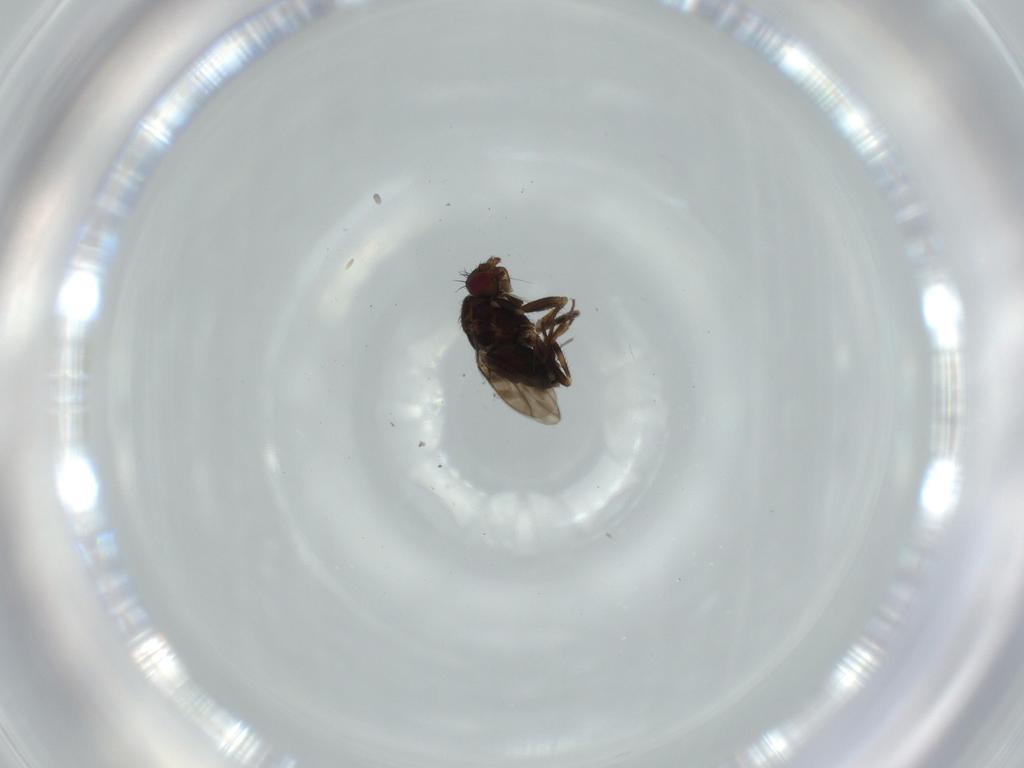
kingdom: Animalia
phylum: Arthropoda
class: Insecta
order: Diptera
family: Sphaeroceridae
